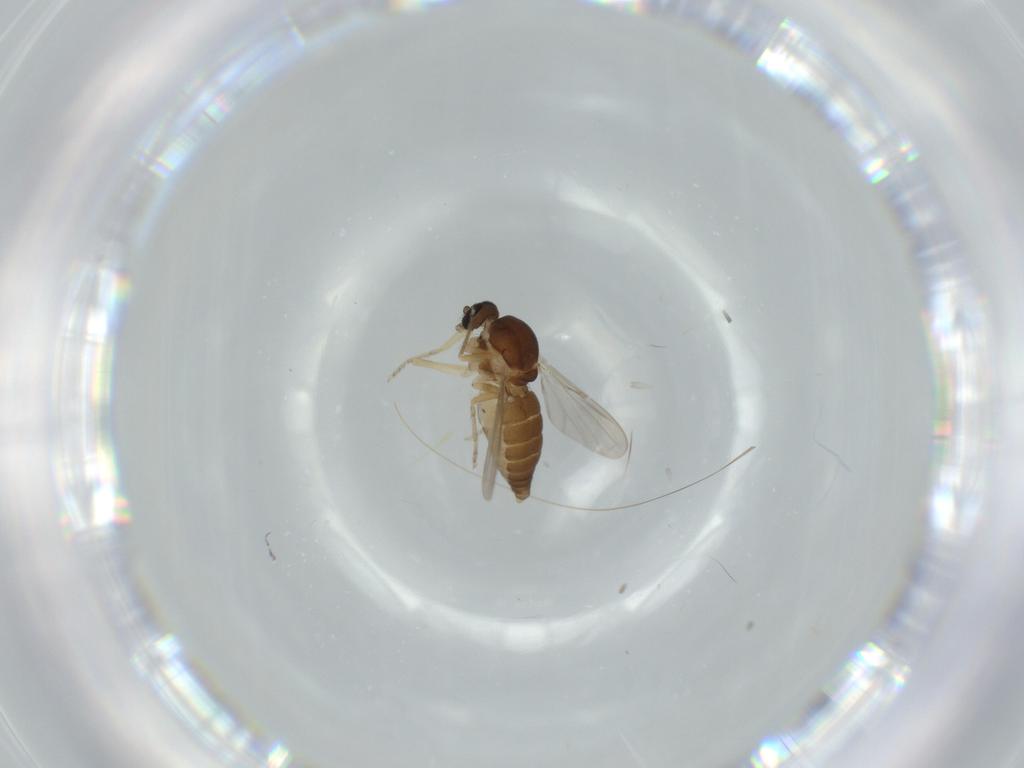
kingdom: Animalia
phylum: Arthropoda
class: Insecta
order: Diptera
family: Ceratopogonidae
